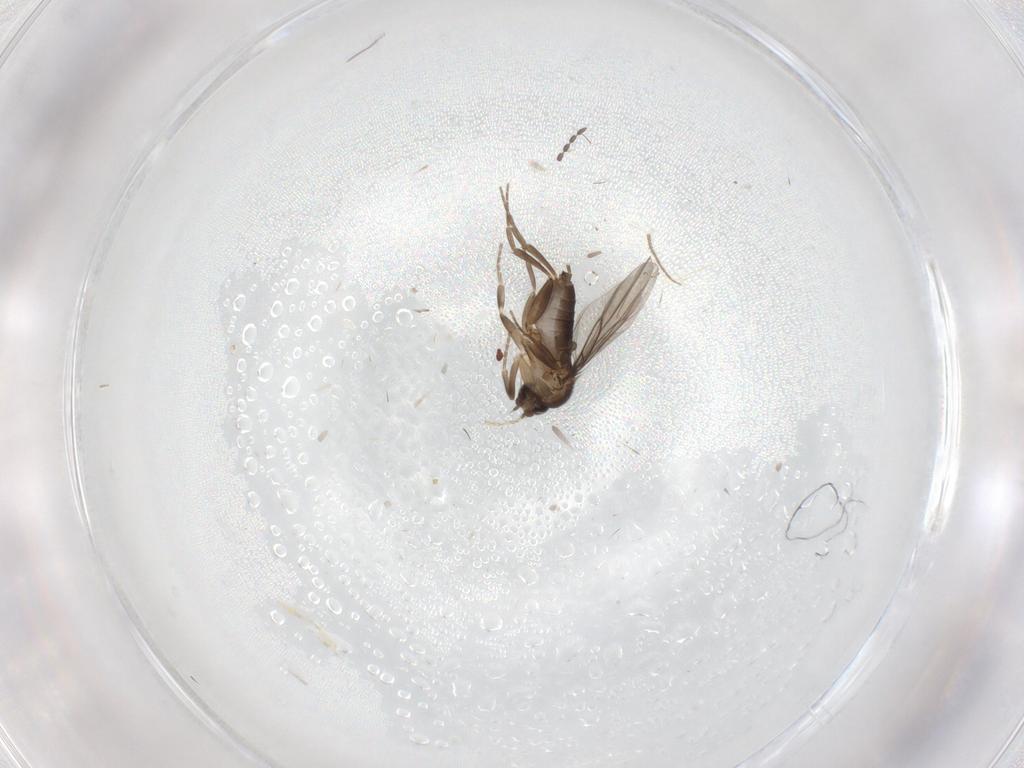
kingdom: Animalia
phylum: Arthropoda
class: Insecta
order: Diptera
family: Ceratopogonidae
